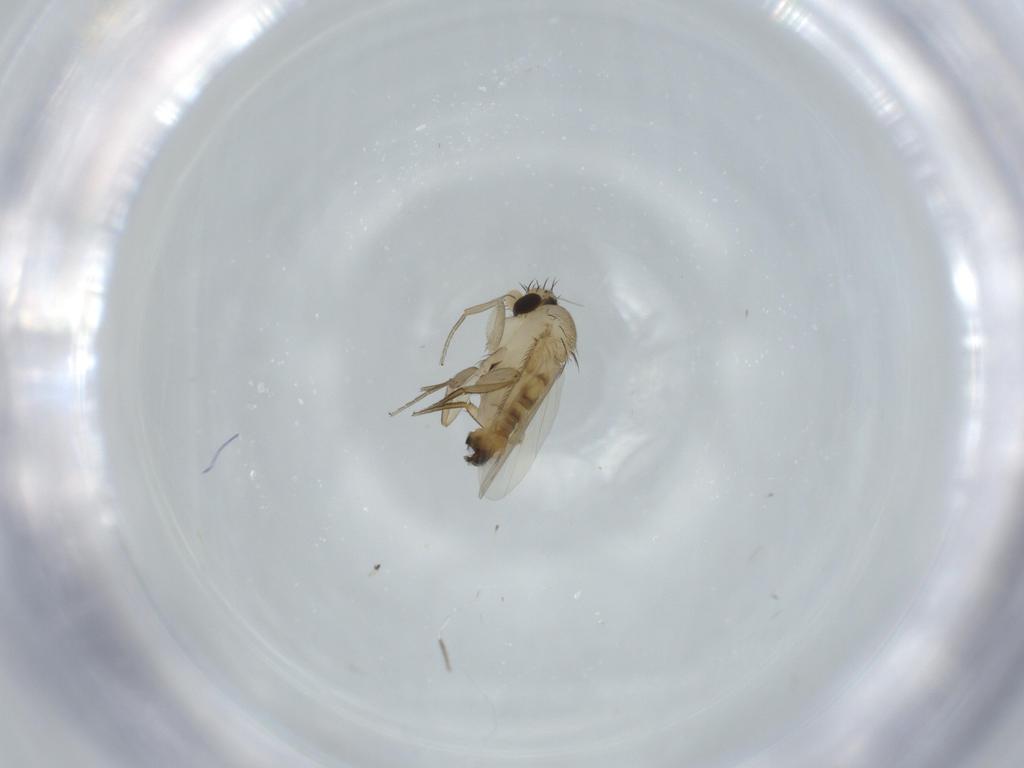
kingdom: Animalia
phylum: Arthropoda
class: Insecta
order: Diptera
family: Phoridae
